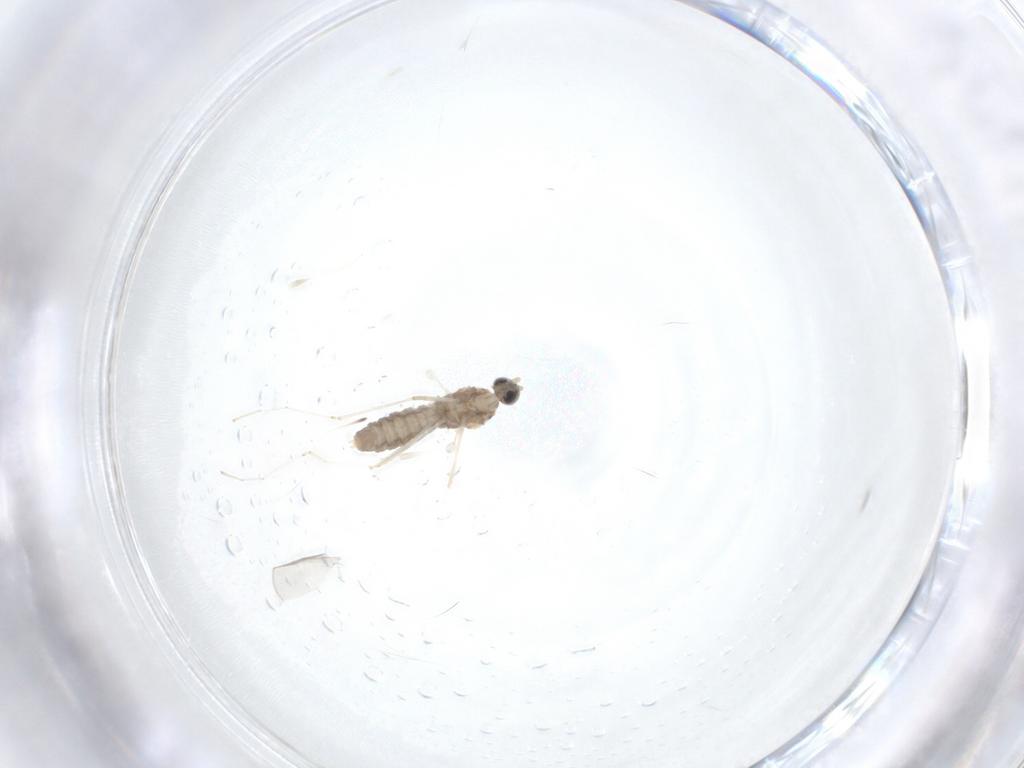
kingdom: Animalia
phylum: Arthropoda
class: Insecta
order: Diptera
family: Cecidomyiidae
